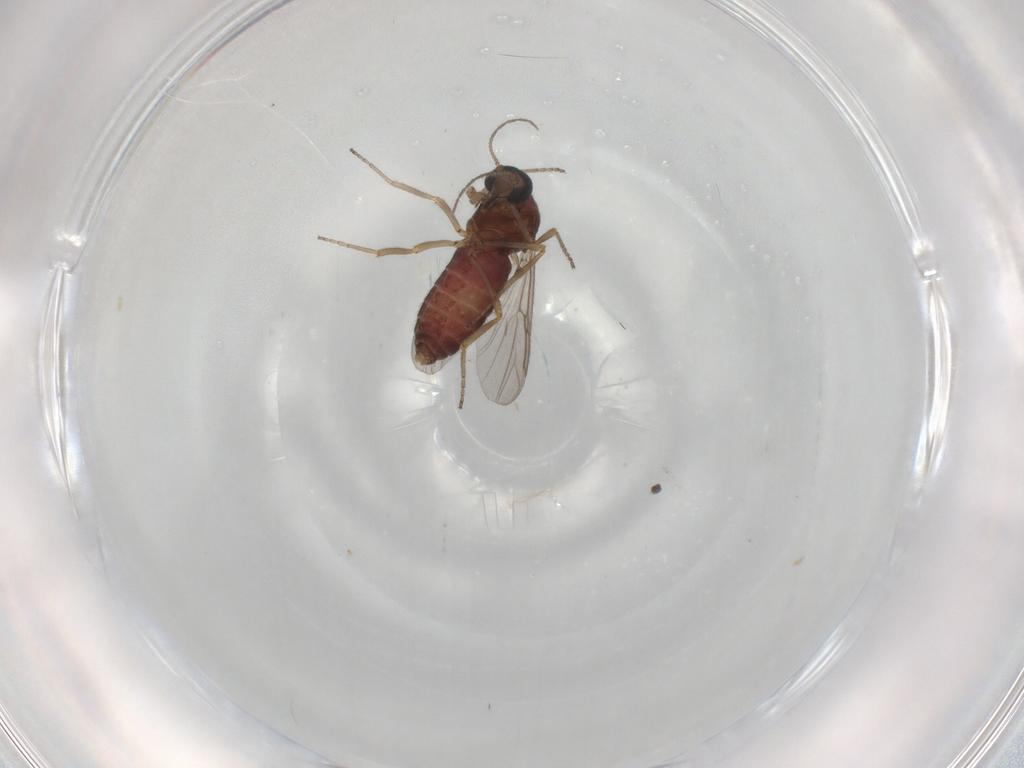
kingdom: Animalia
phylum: Arthropoda
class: Insecta
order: Diptera
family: Ceratopogonidae
